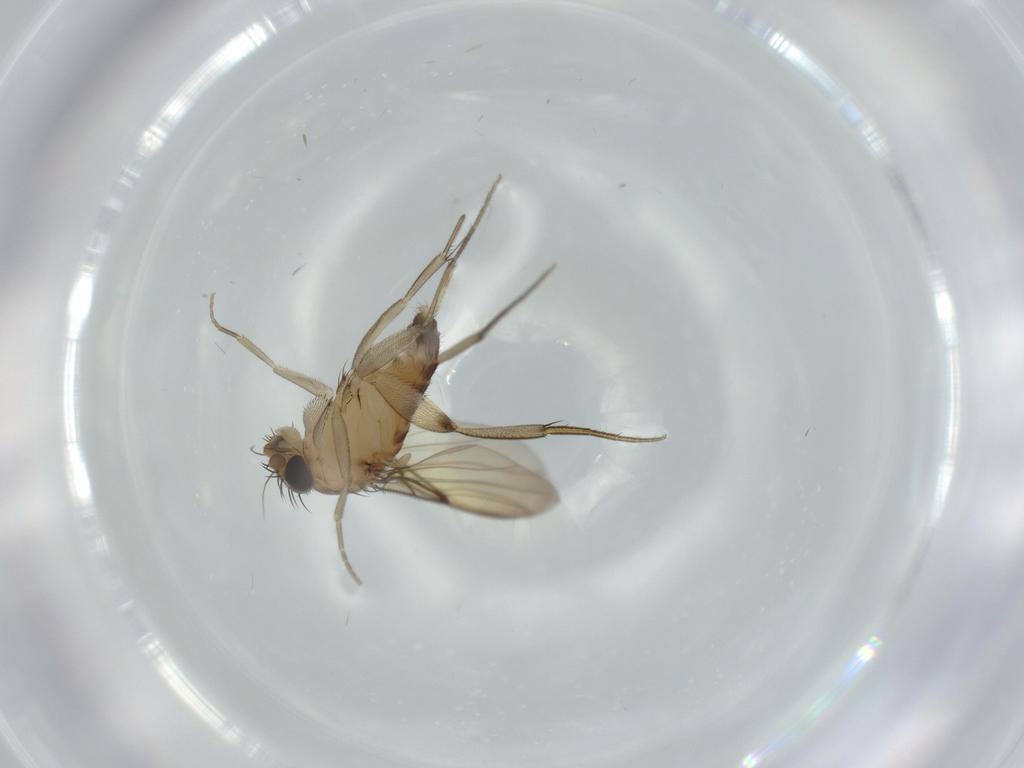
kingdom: Animalia
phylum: Arthropoda
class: Insecta
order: Diptera
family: Phoridae
